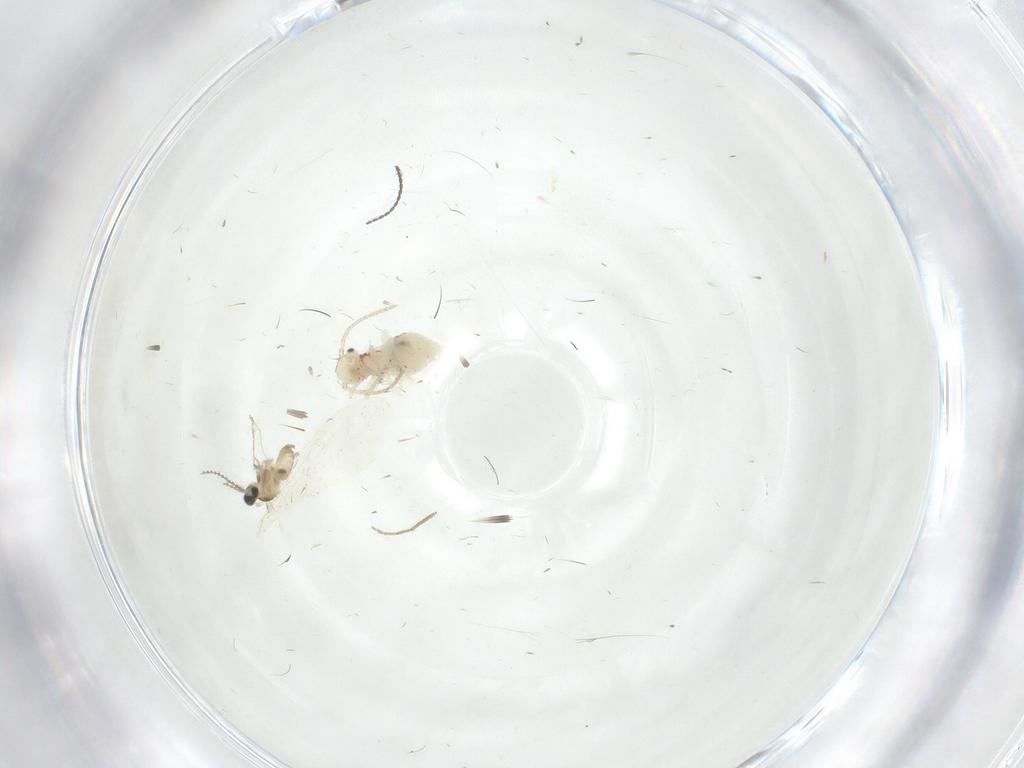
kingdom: Animalia
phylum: Arthropoda
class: Insecta
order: Diptera
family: Cecidomyiidae
